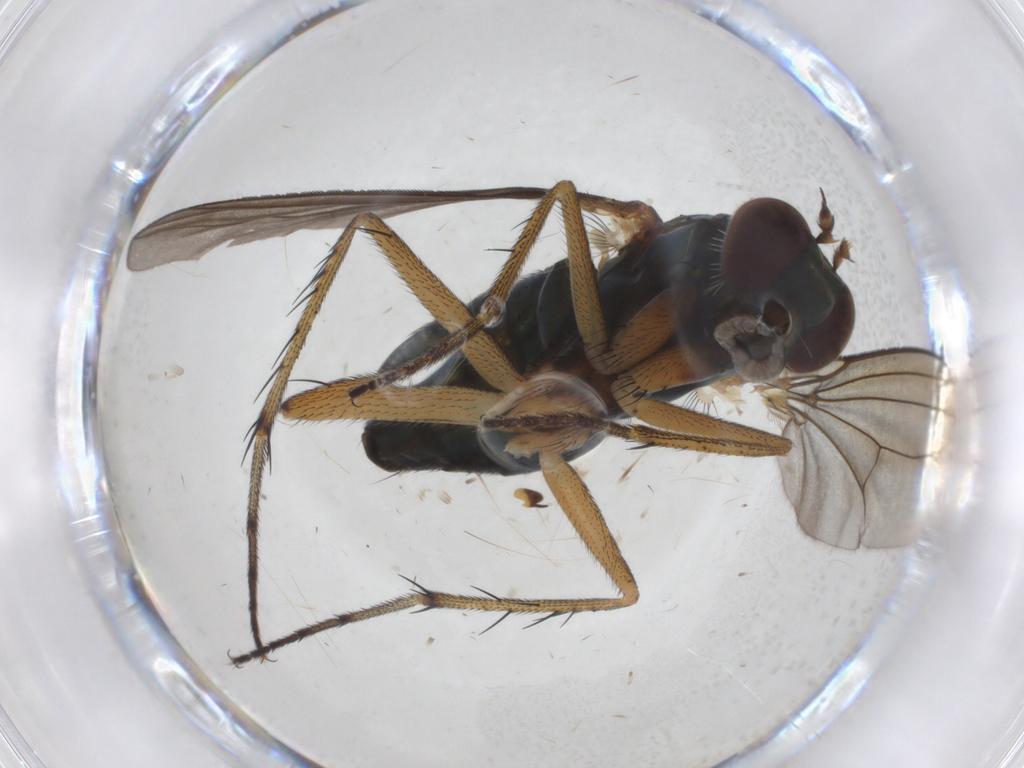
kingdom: Animalia
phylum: Arthropoda
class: Insecta
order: Diptera
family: Dolichopodidae
